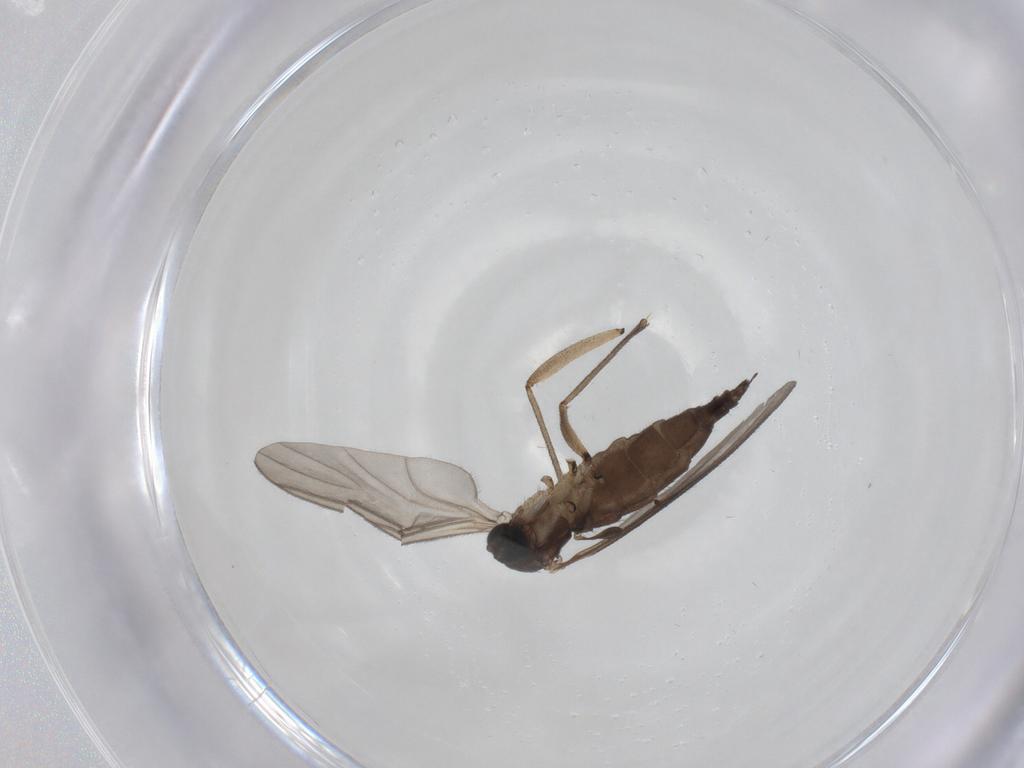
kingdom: Animalia
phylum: Arthropoda
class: Insecta
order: Diptera
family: Sciaridae
